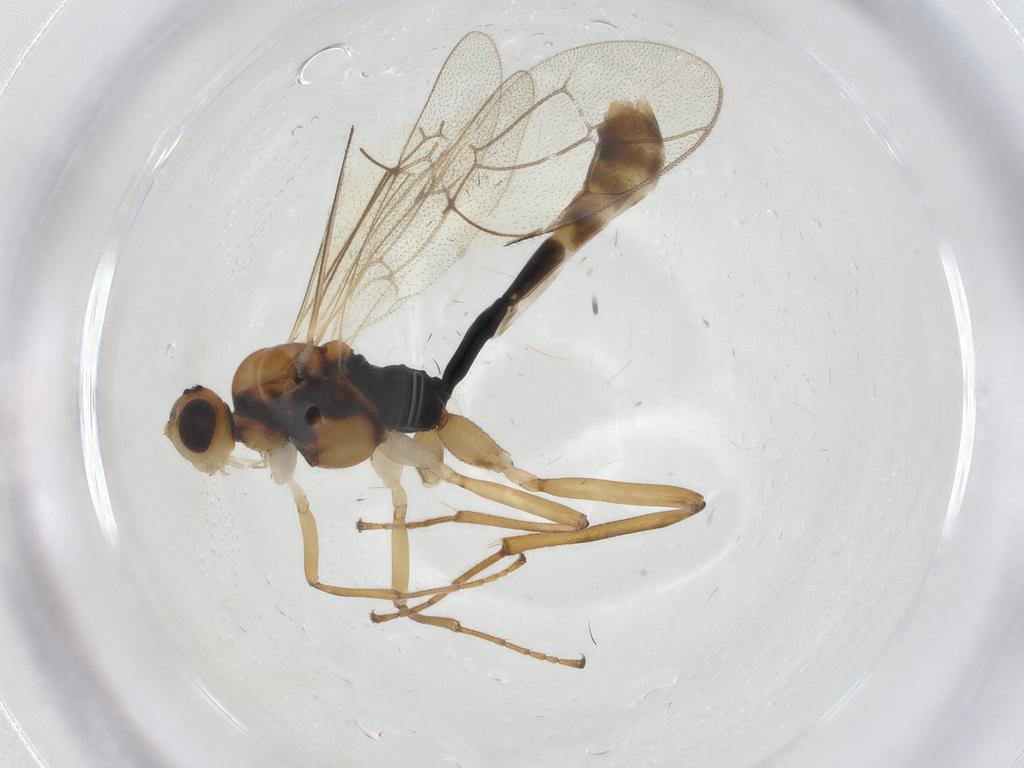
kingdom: Animalia
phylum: Arthropoda
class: Insecta
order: Hymenoptera
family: Ichneumonidae
